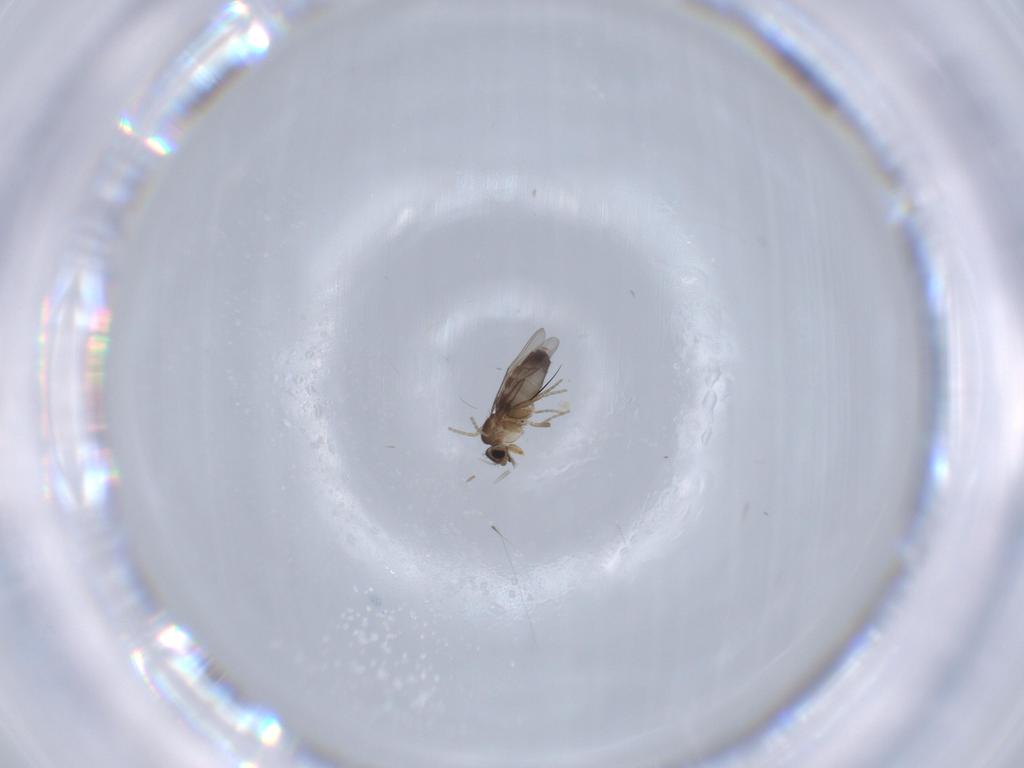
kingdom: Animalia
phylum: Arthropoda
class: Insecta
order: Diptera
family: Phoridae
